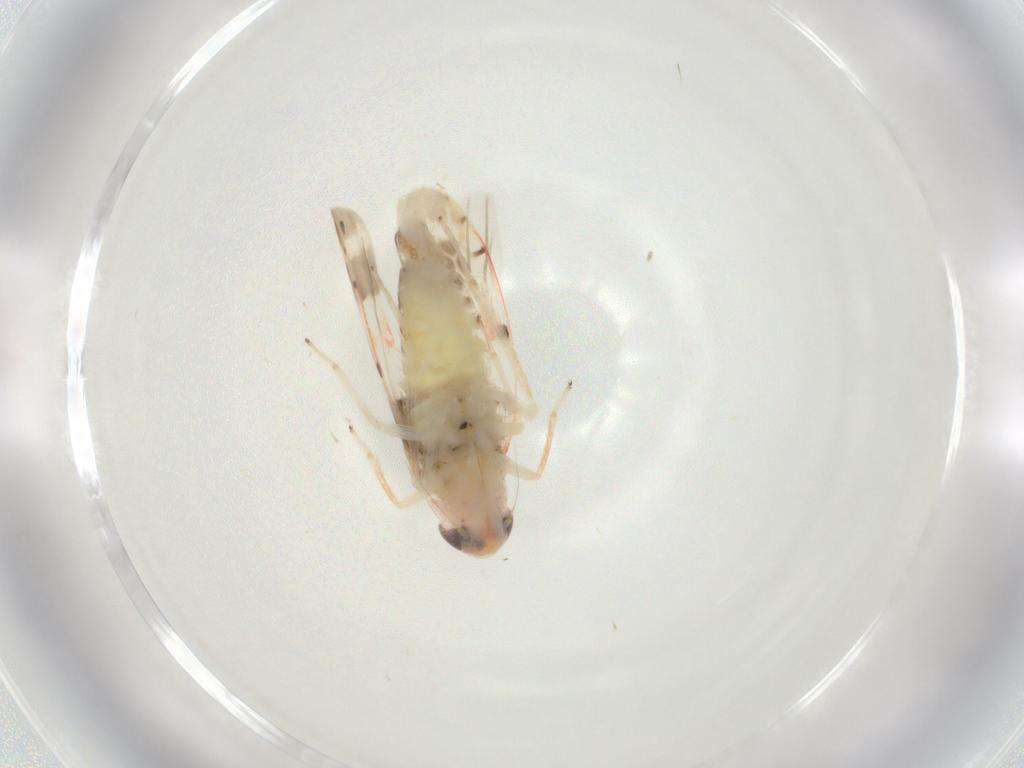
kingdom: Animalia
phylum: Arthropoda
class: Insecta
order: Hemiptera
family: Cicadellidae
